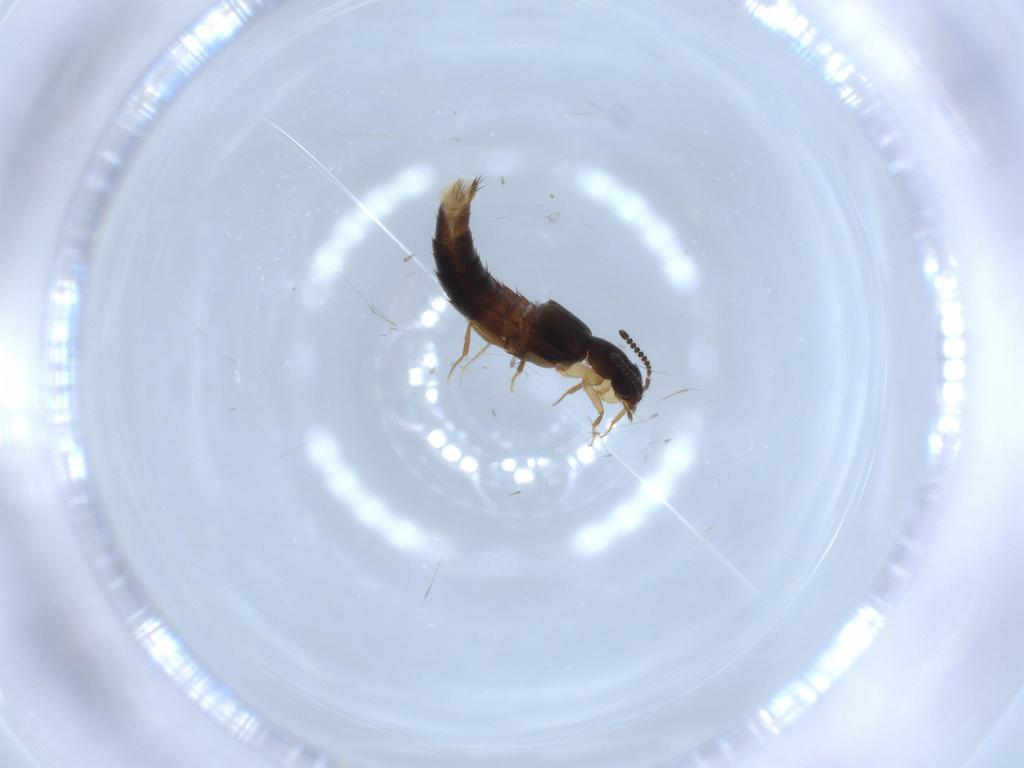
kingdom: Animalia
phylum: Arthropoda
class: Insecta
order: Coleoptera
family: Staphylinidae
